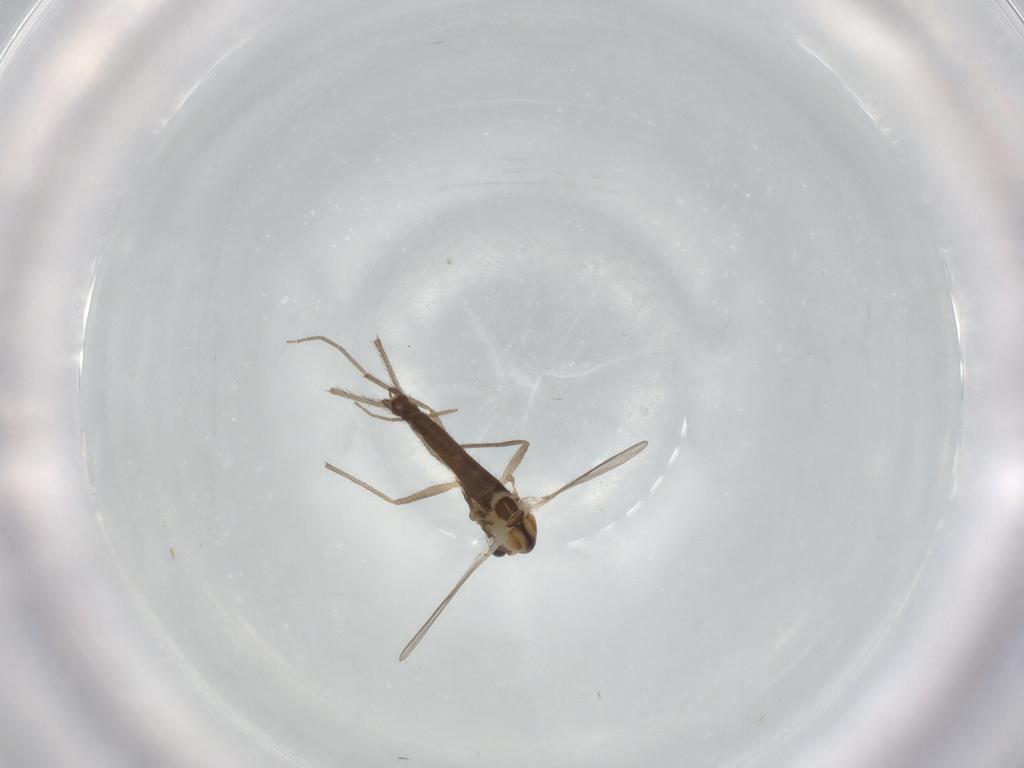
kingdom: Animalia
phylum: Arthropoda
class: Insecta
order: Diptera
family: Chironomidae
